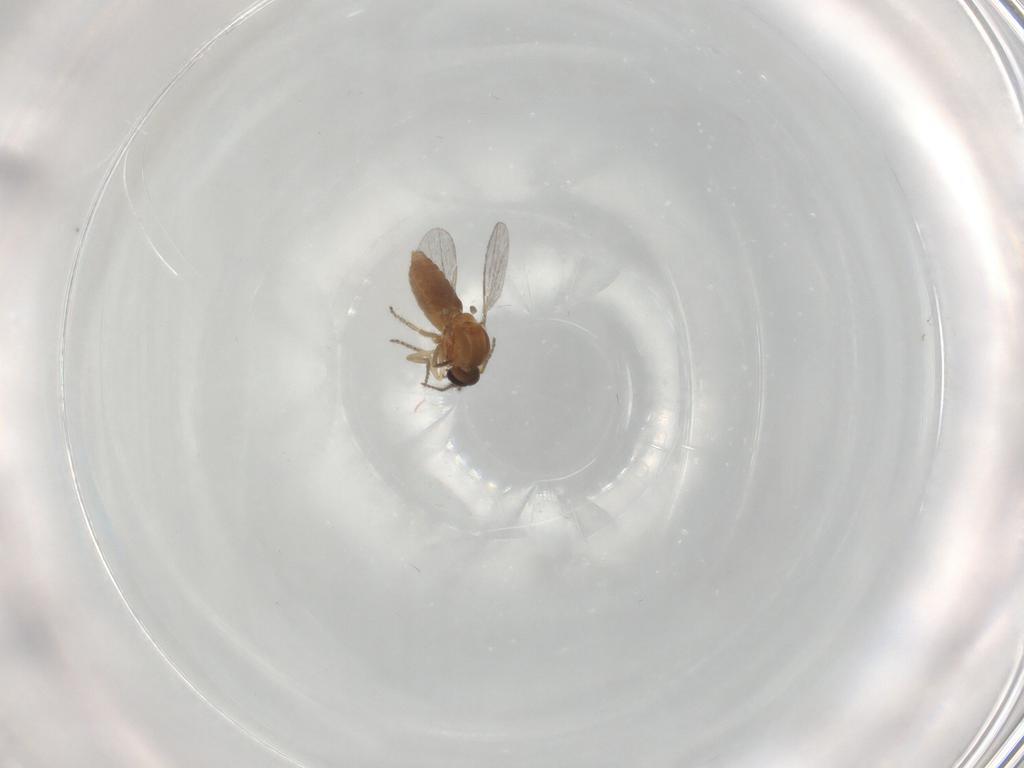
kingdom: Animalia
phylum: Arthropoda
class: Insecta
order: Diptera
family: Ceratopogonidae
